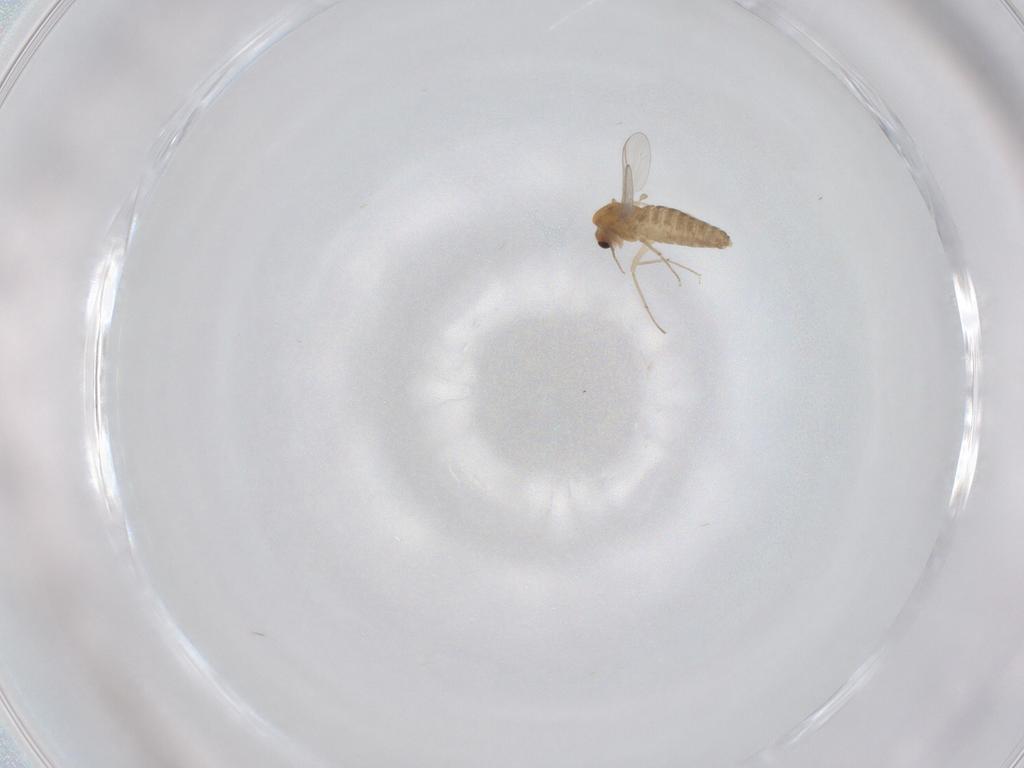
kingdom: Animalia
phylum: Arthropoda
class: Insecta
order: Diptera
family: Chironomidae
